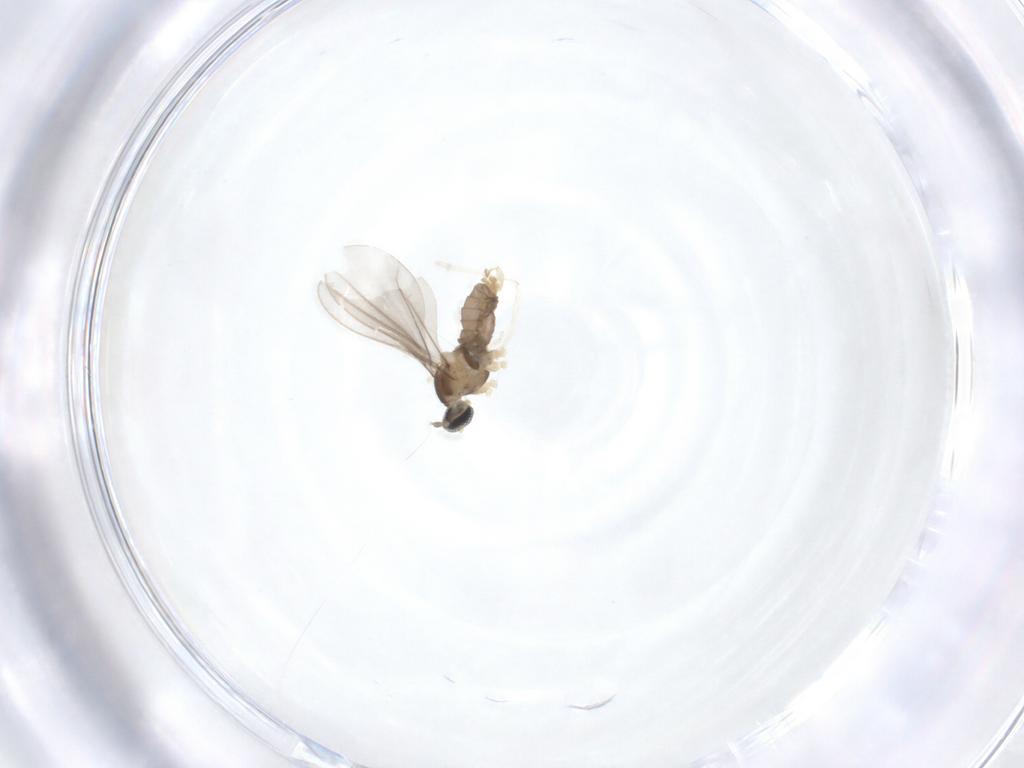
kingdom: Animalia
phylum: Arthropoda
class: Insecta
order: Diptera
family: Cecidomyiidae
